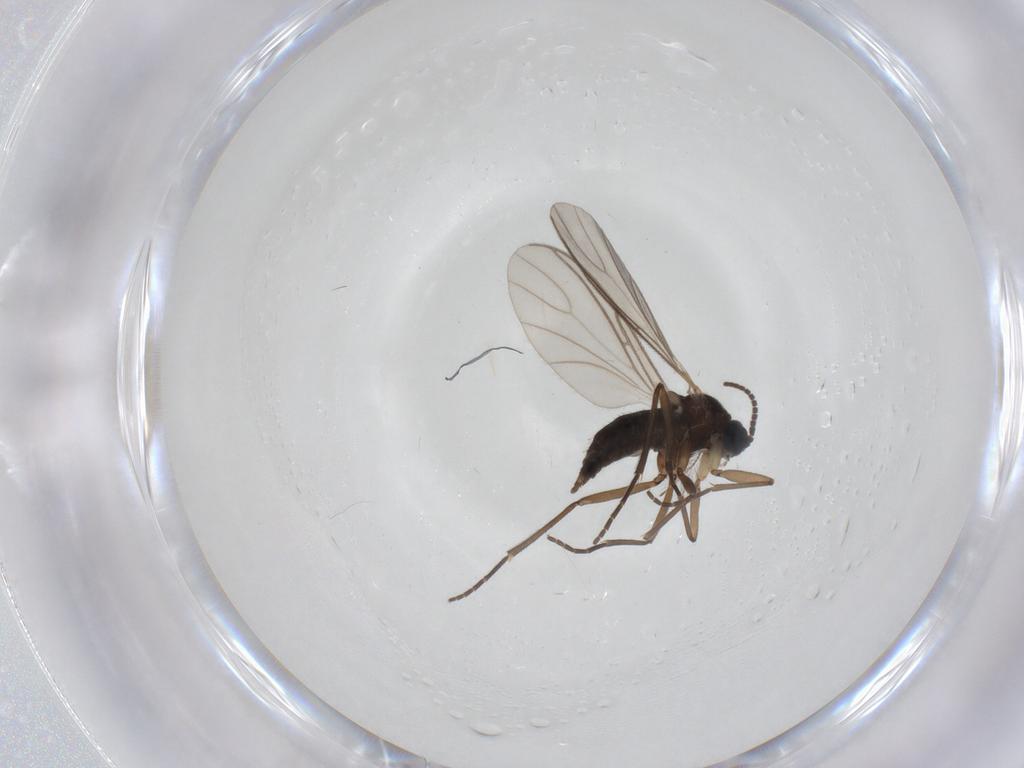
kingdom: Animalia
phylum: Arthropoda
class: Insecta
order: Diptera
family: Sciaridae
